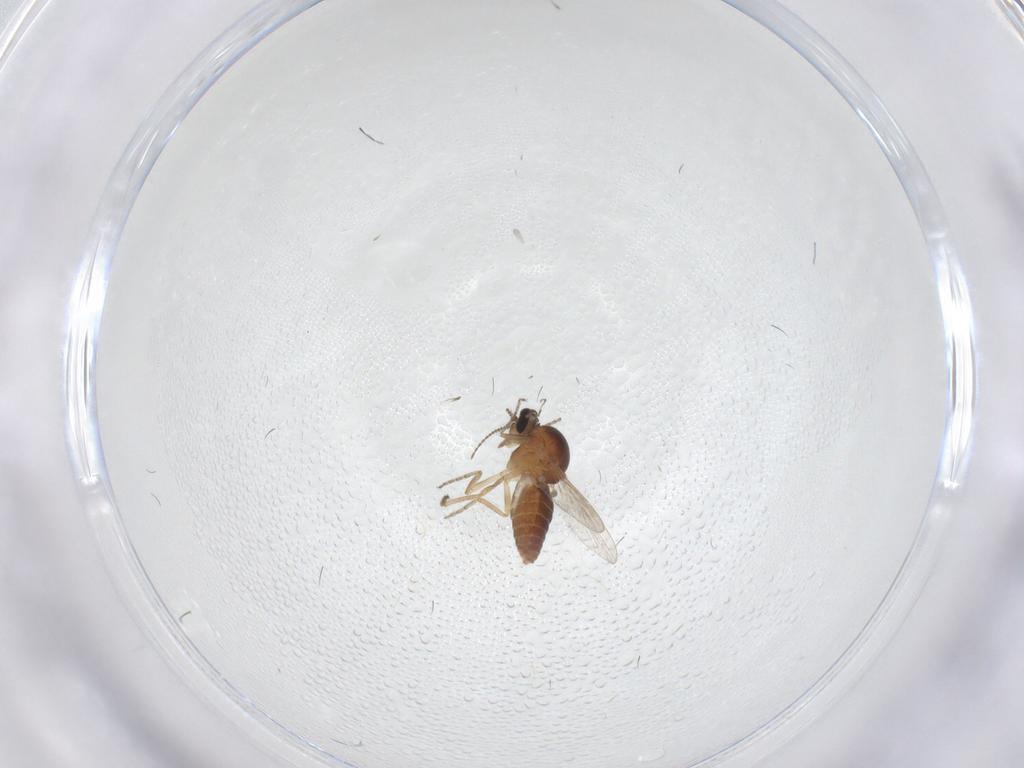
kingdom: Animalia
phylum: Arthropoda
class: Insecta
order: Diptera
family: Ceratopogonidae
